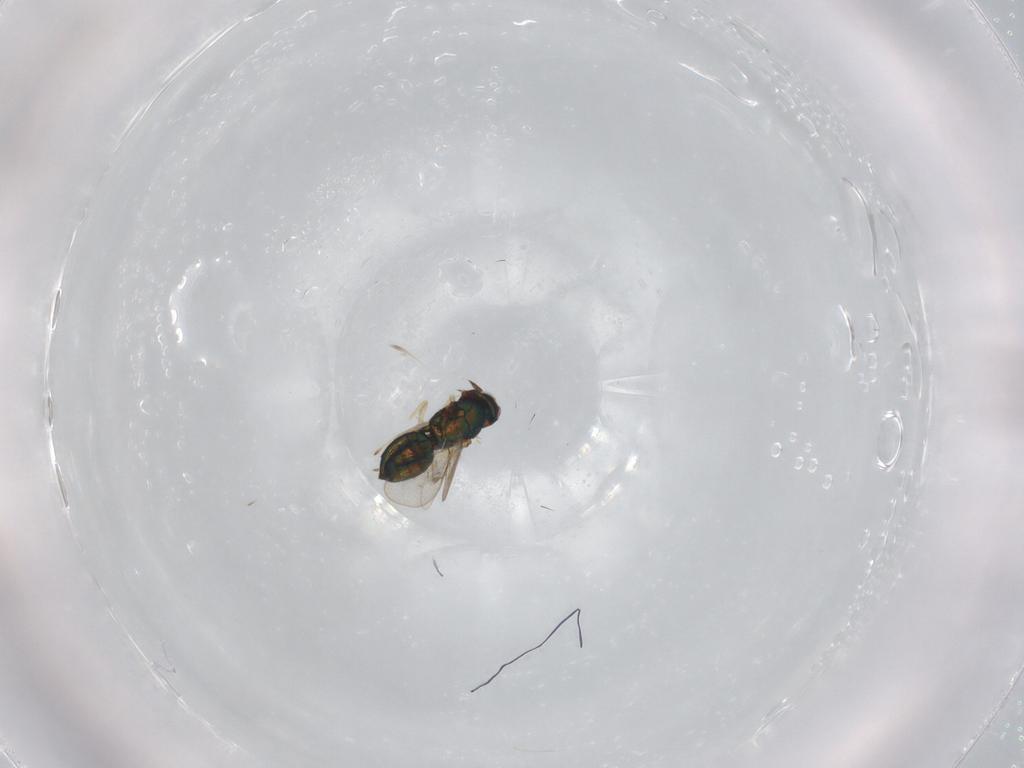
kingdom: Animalia
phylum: Arthropoda
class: Insecta
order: Hymenoptera
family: Eulophidae
